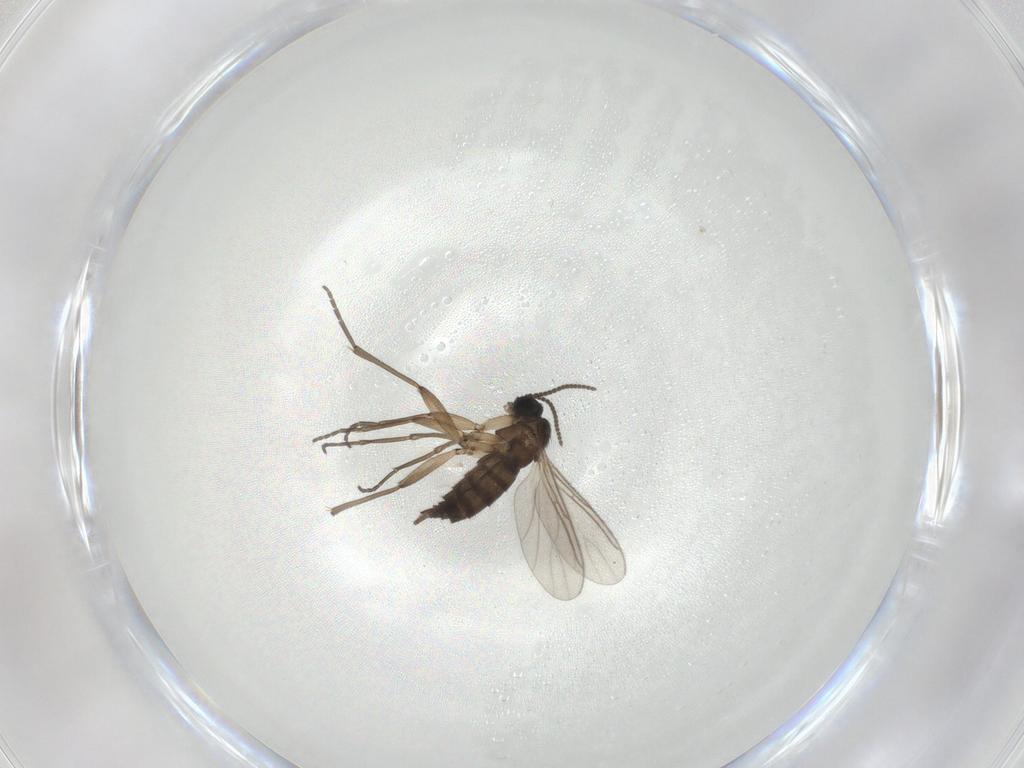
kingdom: Animalia
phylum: Arthropoda
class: Insecta
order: Diptera
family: Sciaridae
